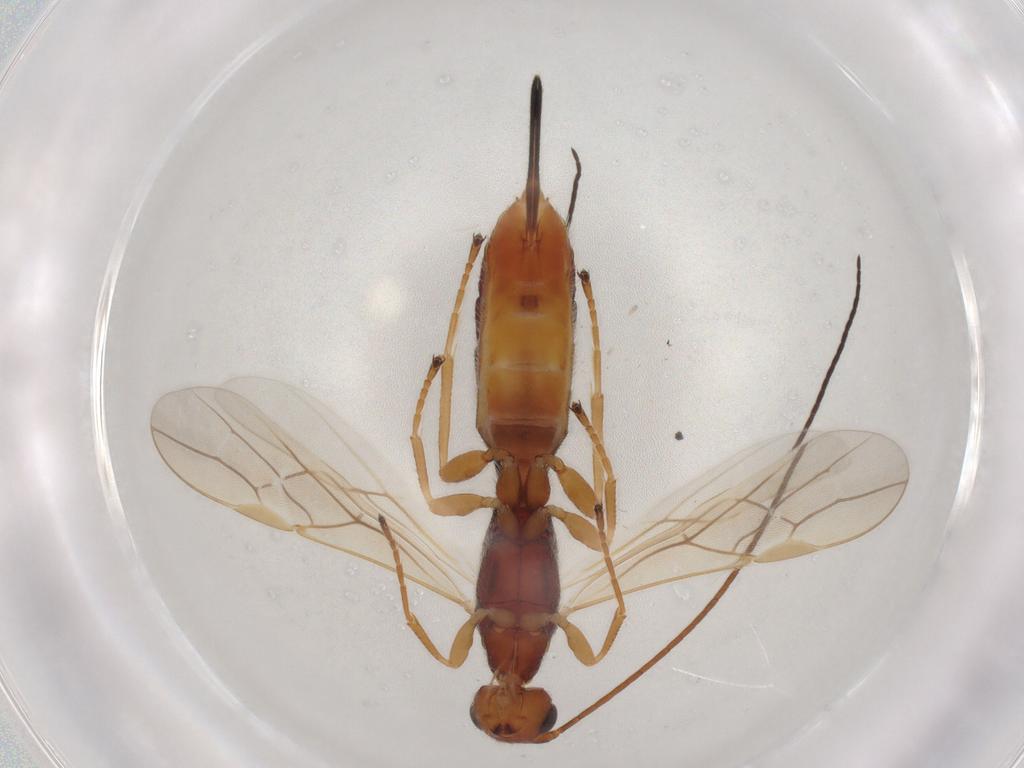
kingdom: Animalia
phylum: Arthropoda
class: Insecta
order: Hymenoptera
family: Braconidae
